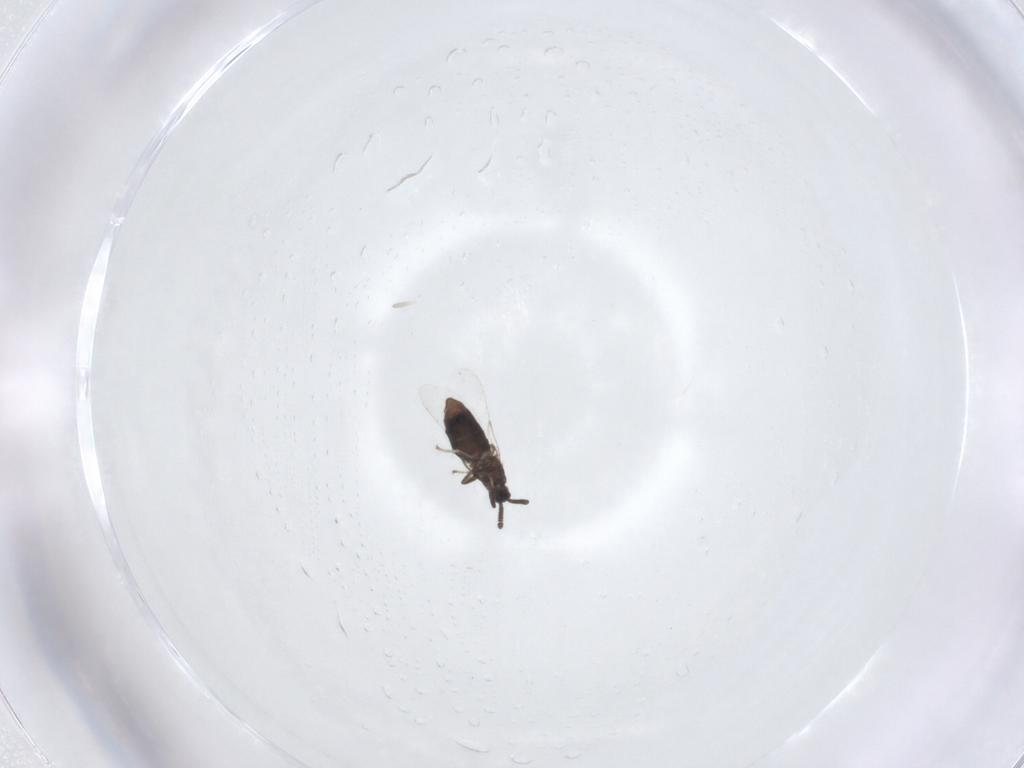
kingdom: Animalia
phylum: Arthropoda
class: Insecta
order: Diptera
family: Scatopsidae
